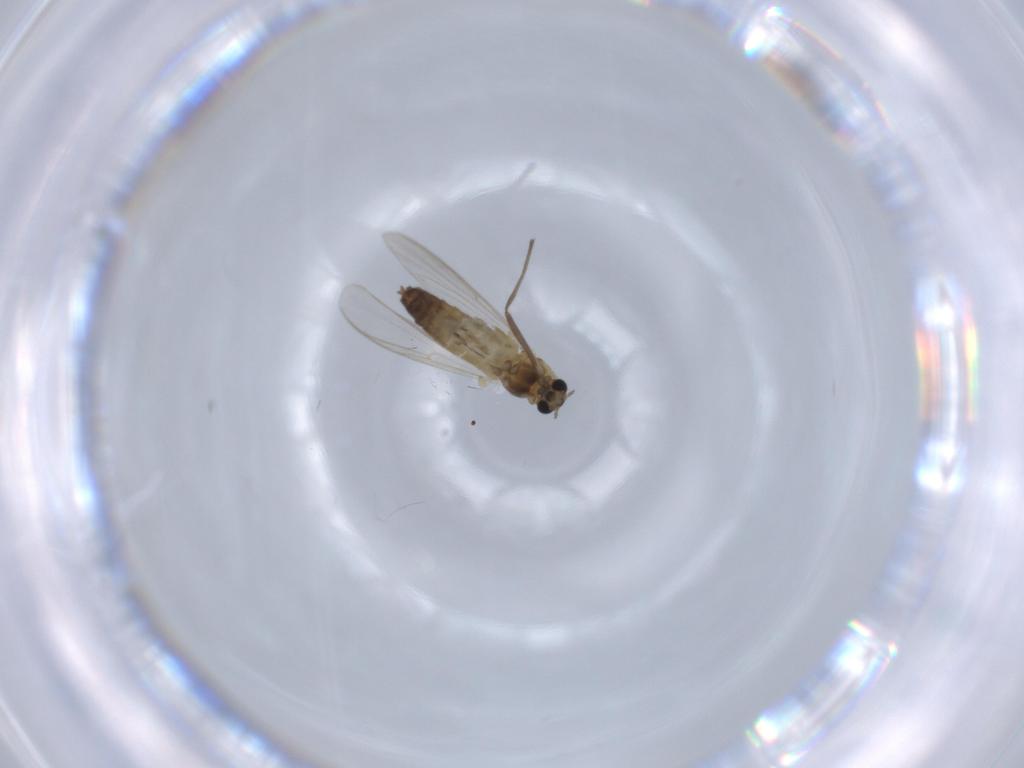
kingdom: Animalia
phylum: Arthropoda
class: Insecta
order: Diptera
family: Chironomidae
